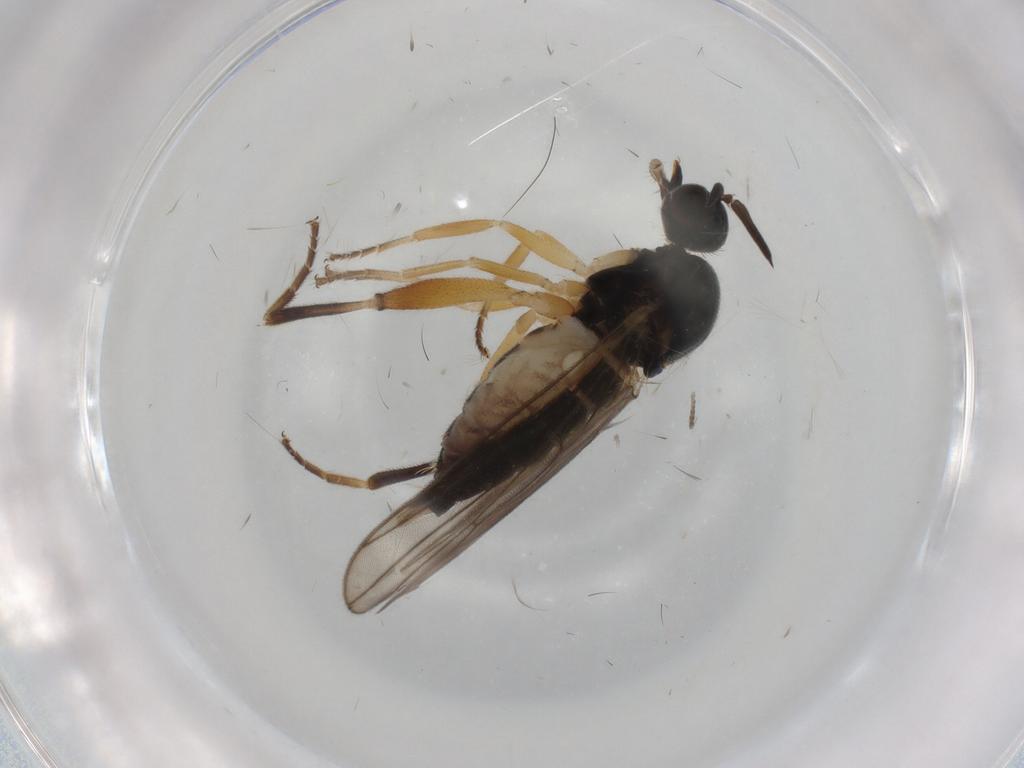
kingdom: Animalia
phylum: Arthropoda
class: Insecta
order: Diptera
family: Hybotidae
